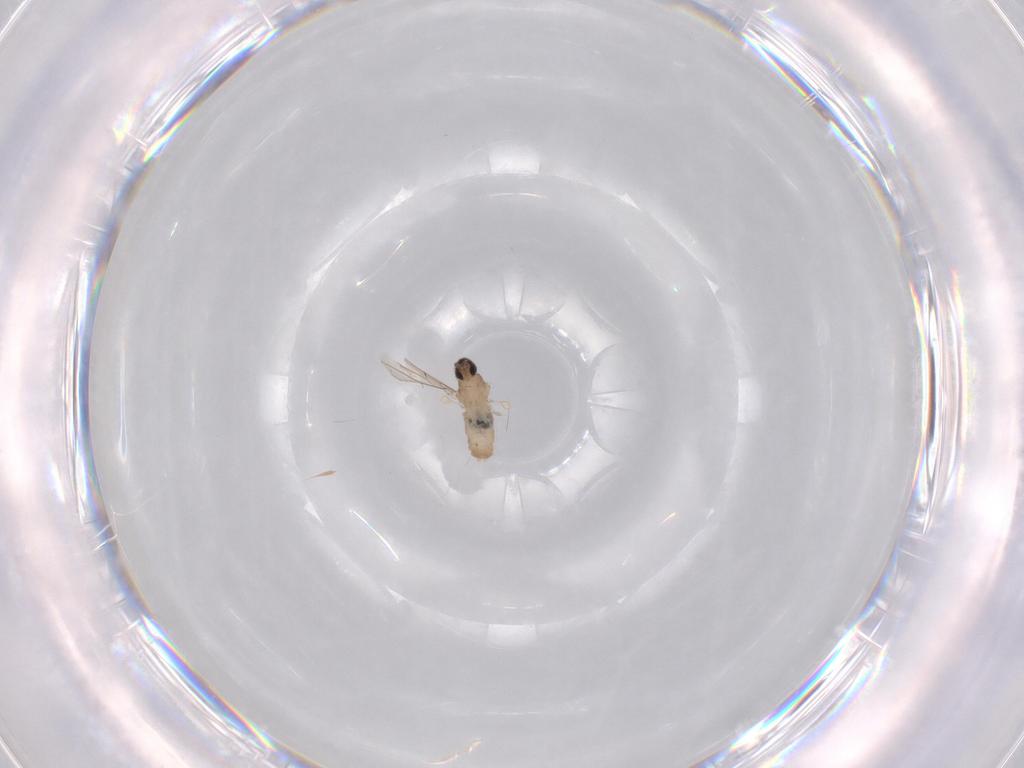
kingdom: Animalia
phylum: Arthropoda
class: Insecta
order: Diptera
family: Cecidomyiidae
